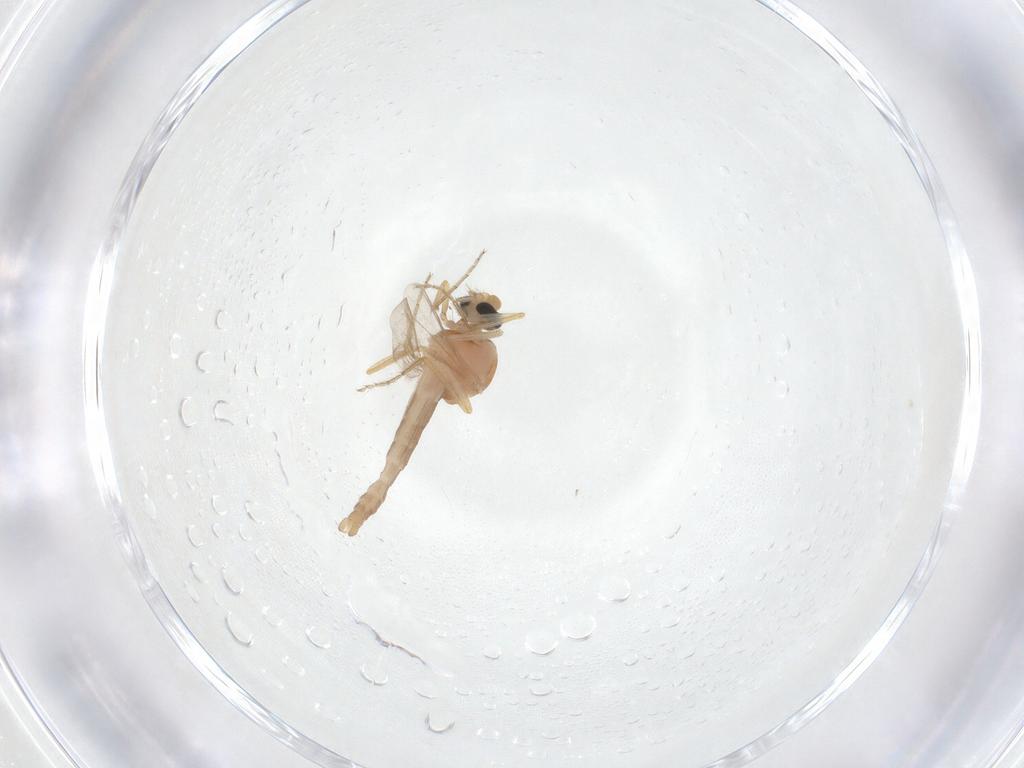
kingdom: Animalia
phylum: Arthropoda
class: Insecta
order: Diptera
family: Ceratopogonidae
